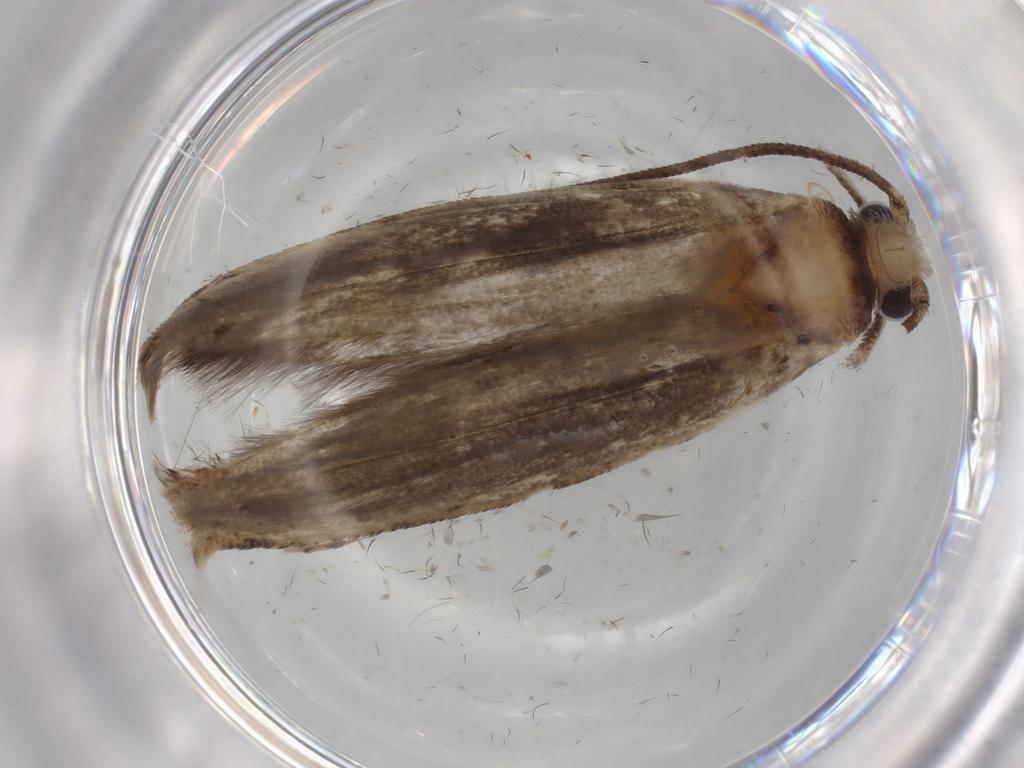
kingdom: Animalia
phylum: Arthropoda
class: Insecta
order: Lepidoptera
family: Yponomeutidae
